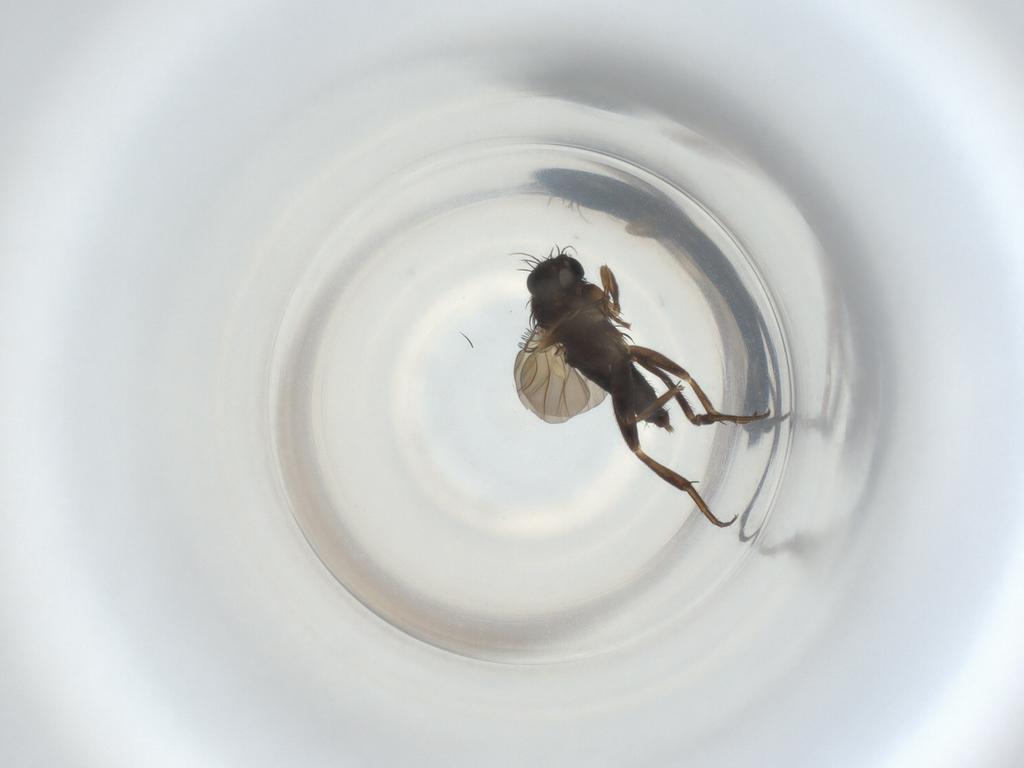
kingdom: Animalia
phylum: Arthropoda
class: Insecta
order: Diptera
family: Phoridae
